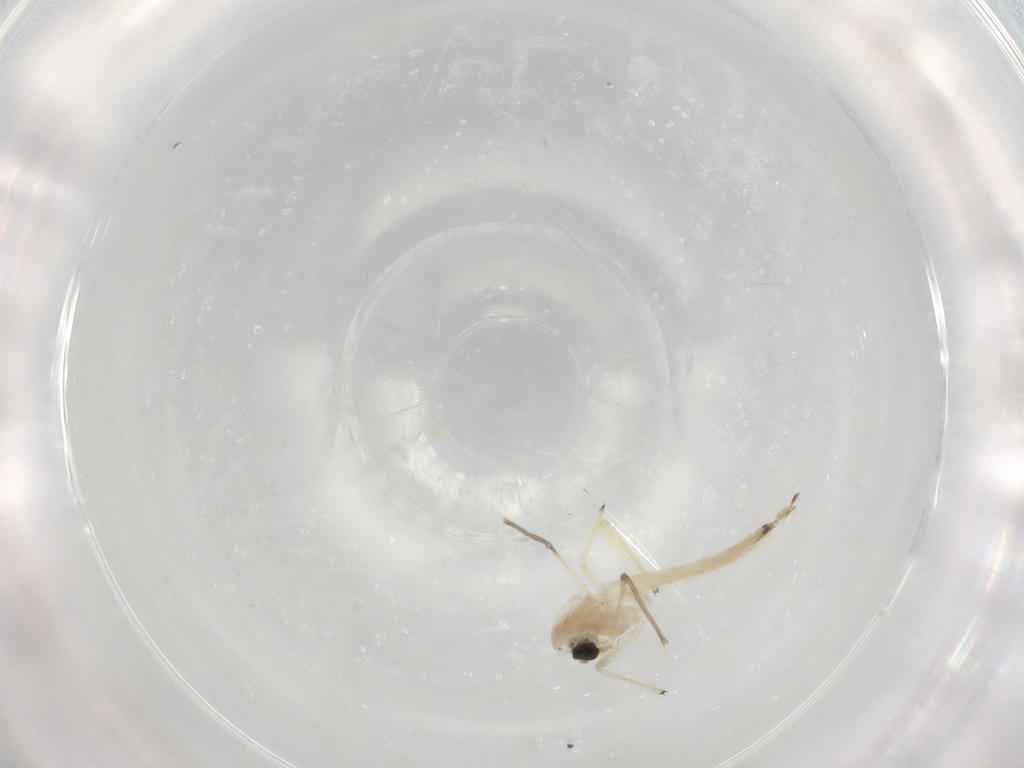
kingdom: Animalia
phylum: Arthropoda
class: Insecta
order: Diptera
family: Chironomidae
